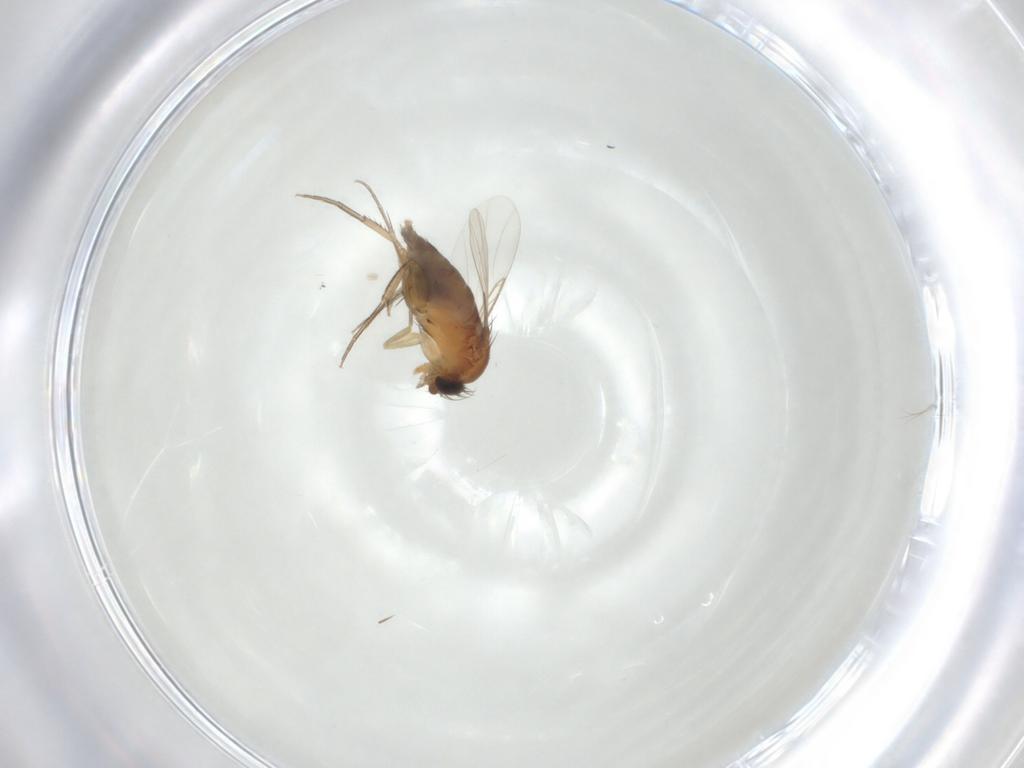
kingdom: Animalia
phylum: Arthropoda
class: Insecta
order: Diptera
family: Phoridae
